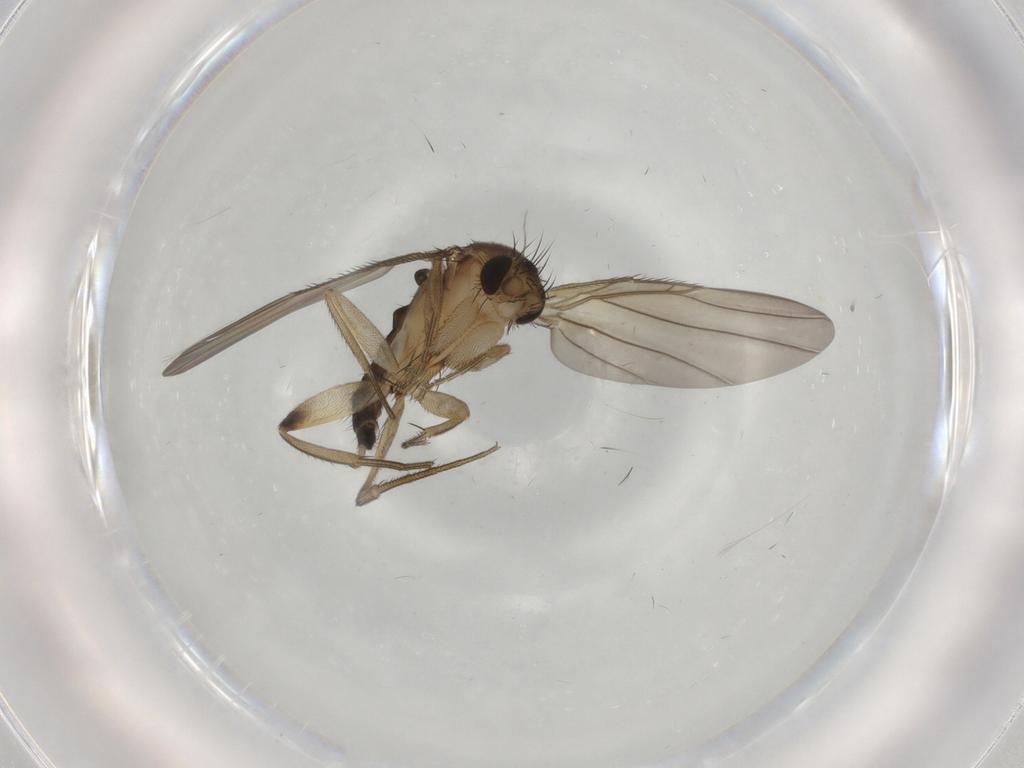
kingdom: Animalia
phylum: Arthropoda
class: Insecta
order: Diptera
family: Phoridae
